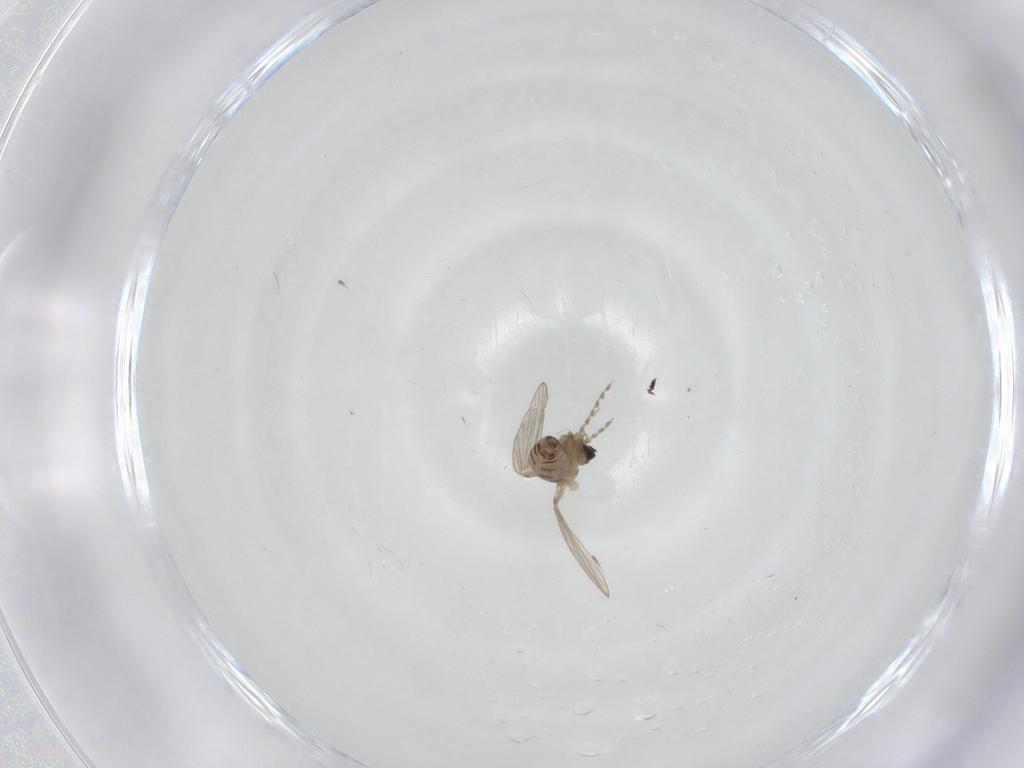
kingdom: Animalia
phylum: Arthropoda
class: Insecta
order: Diptera
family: Psychodidae
